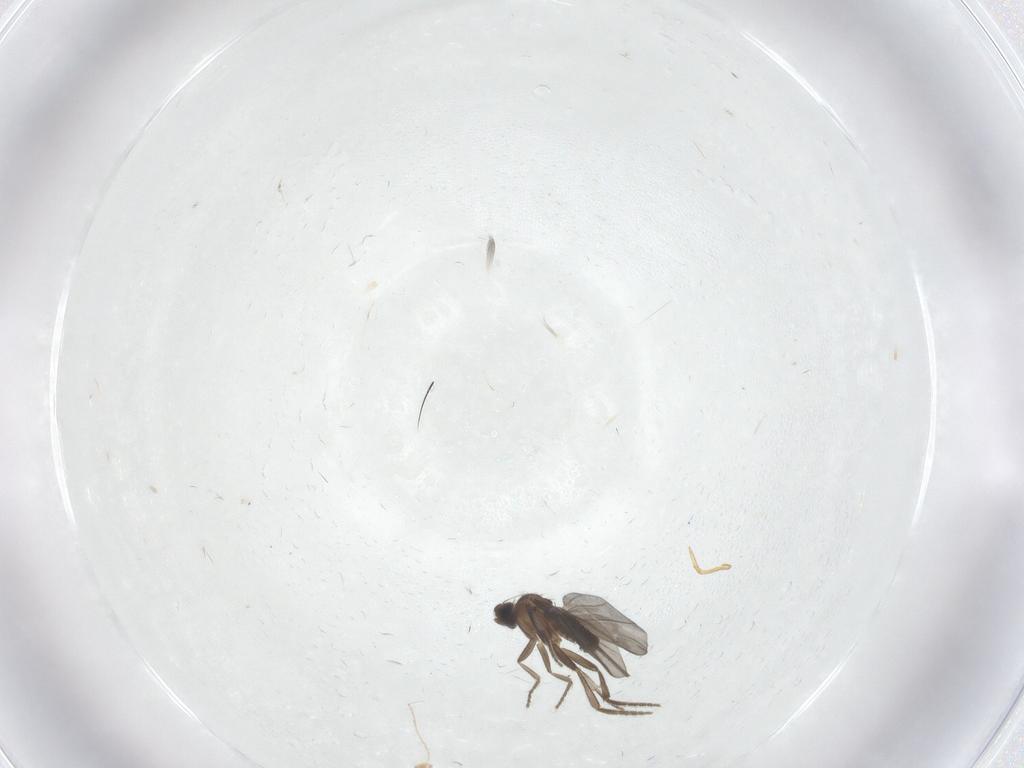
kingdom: Animalia
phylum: Arthropoda
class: Insecta
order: Diptera
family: Phoridae
